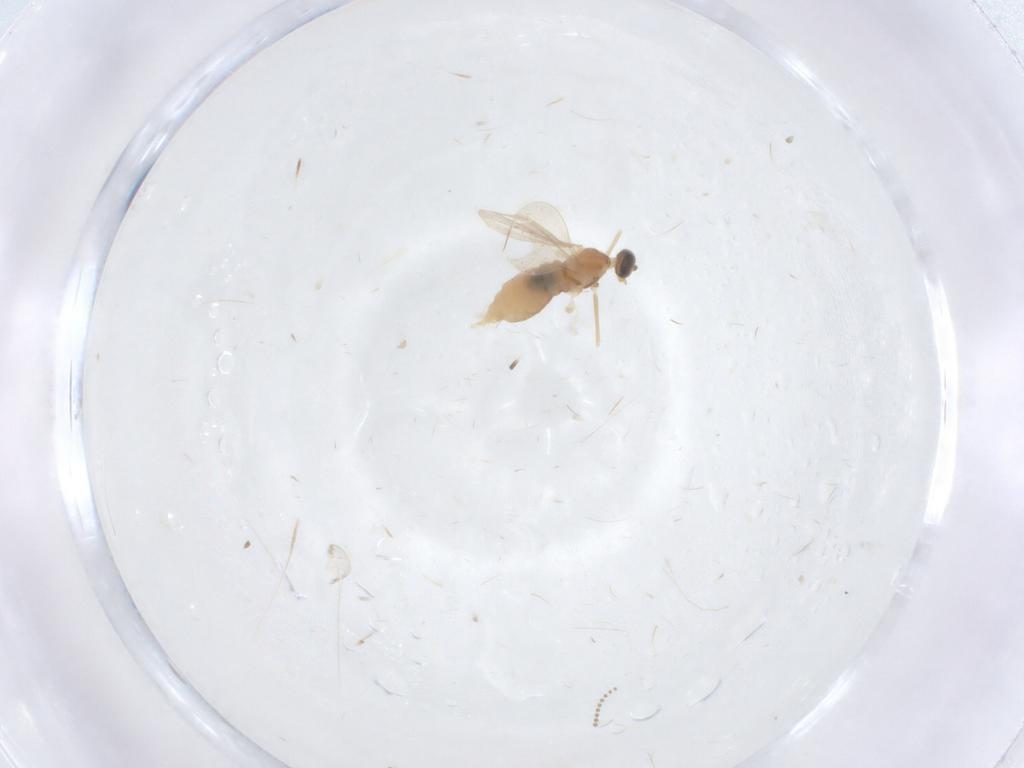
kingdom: Animalia
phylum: Arthropoda
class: Insecta
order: Diptera
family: Psychodidae
